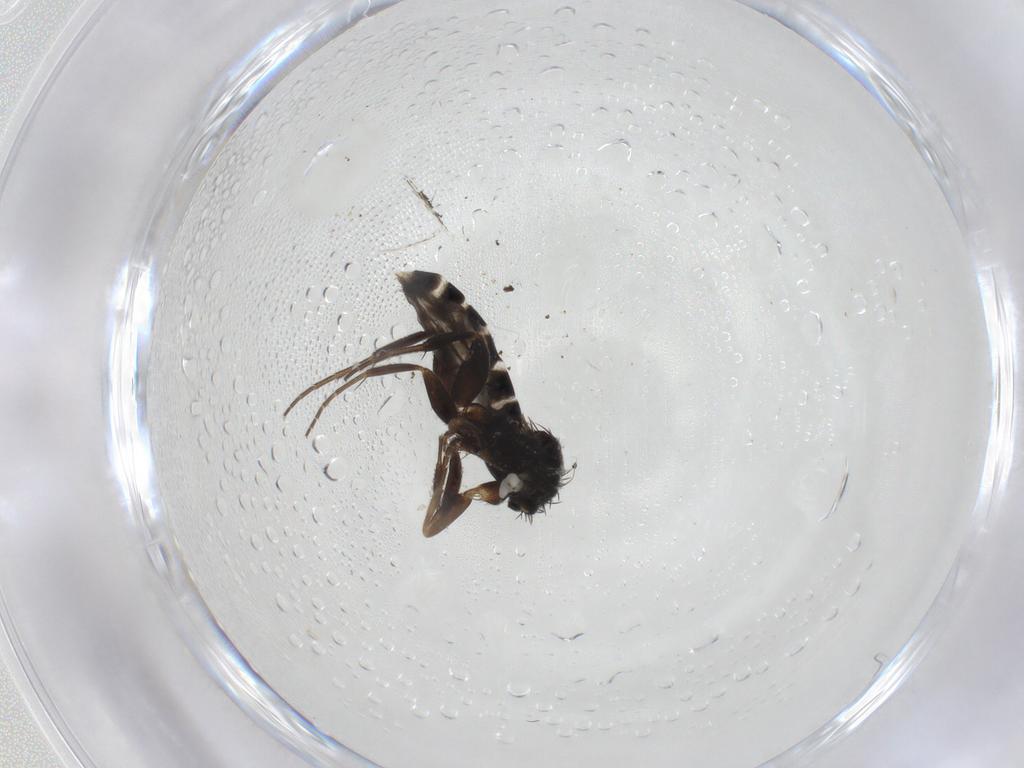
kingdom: Animalia
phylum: Arthropoda
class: Insecta
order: Diptera
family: Phoridae
